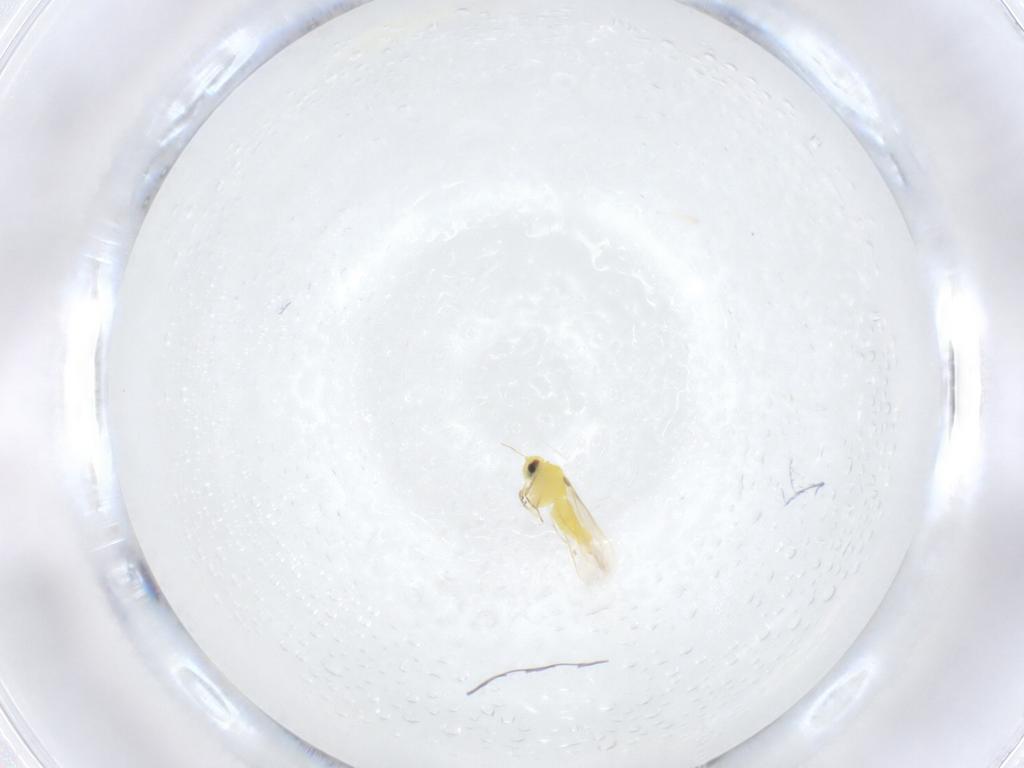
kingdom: Animalia
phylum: Arthropoda
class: Insecta
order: Hemiptera
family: Aleyrodidae
